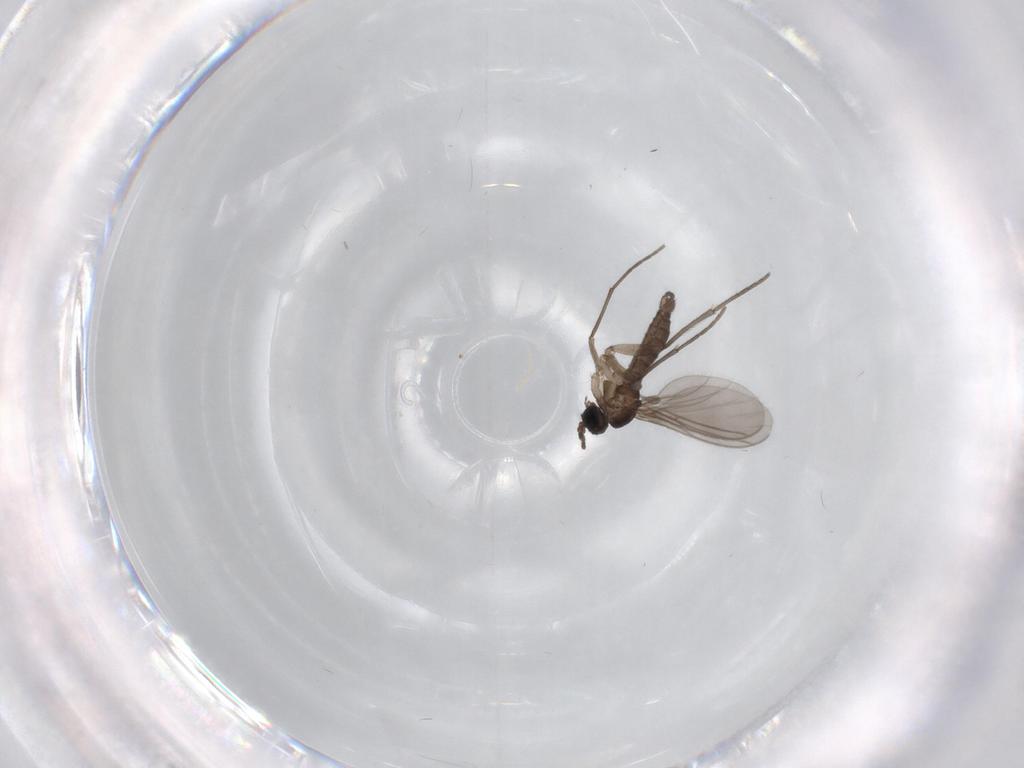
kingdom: Animalia
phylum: Arthropoda
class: Insecta
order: Diptera
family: Sciaridae
